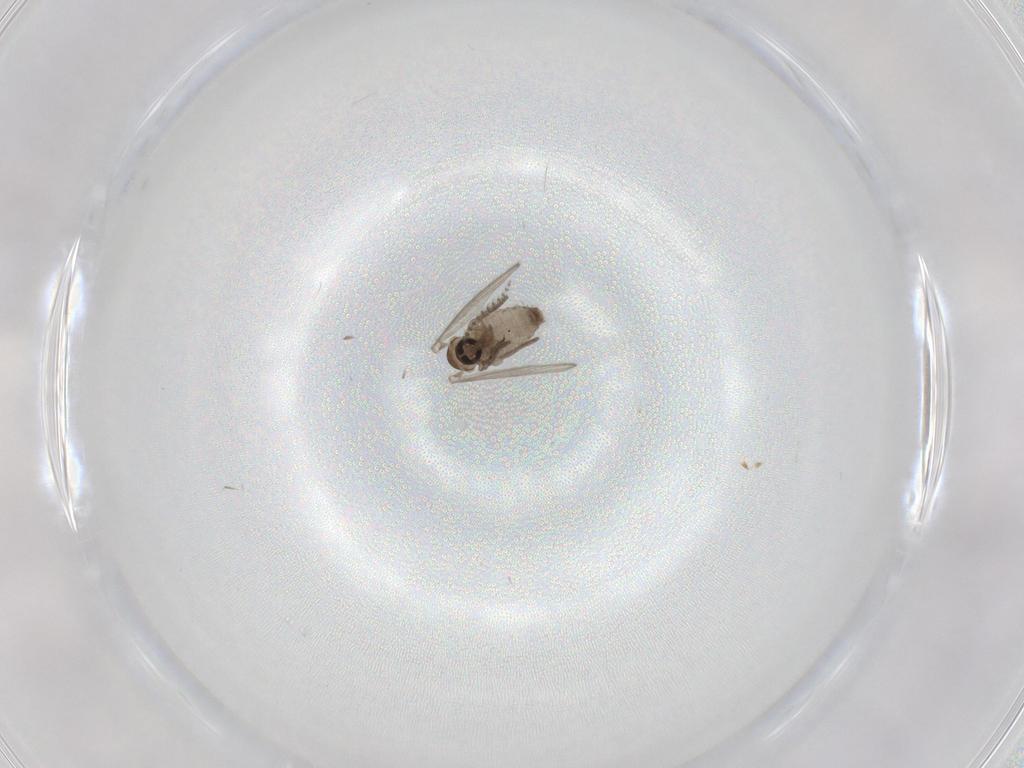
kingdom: Animalia
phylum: Arthropoda
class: Insecta
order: Diptera
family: Psychodidae
